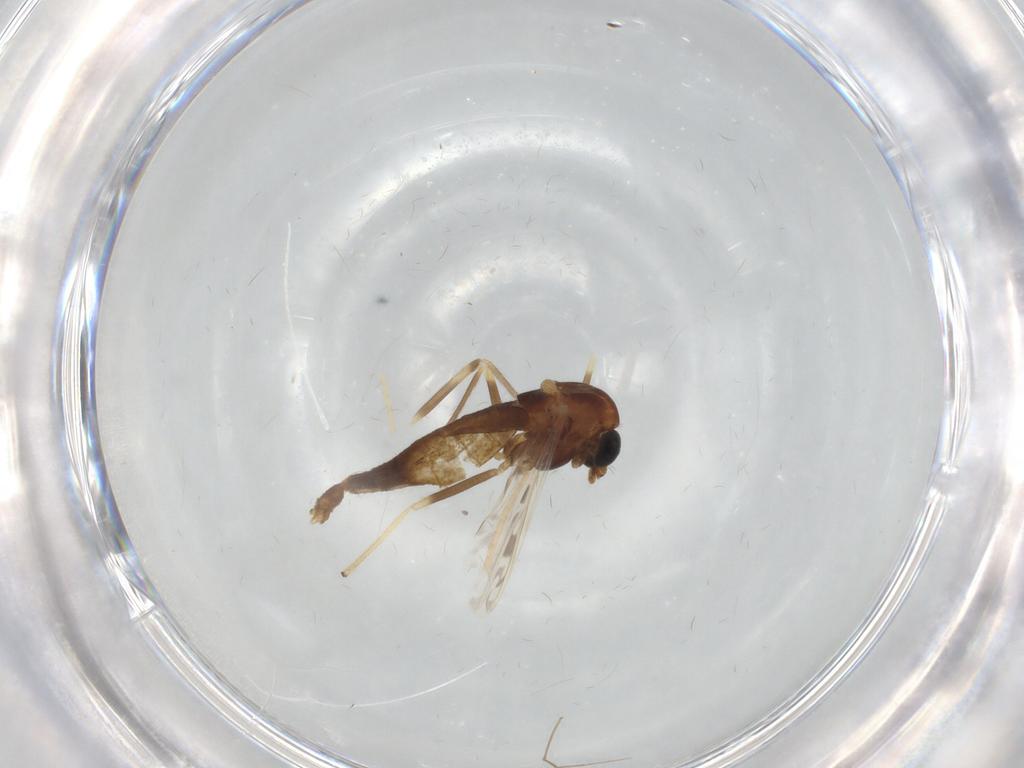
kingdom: Animalia
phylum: Arthropoda
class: Insecta
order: Diptera
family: Chironomidae
